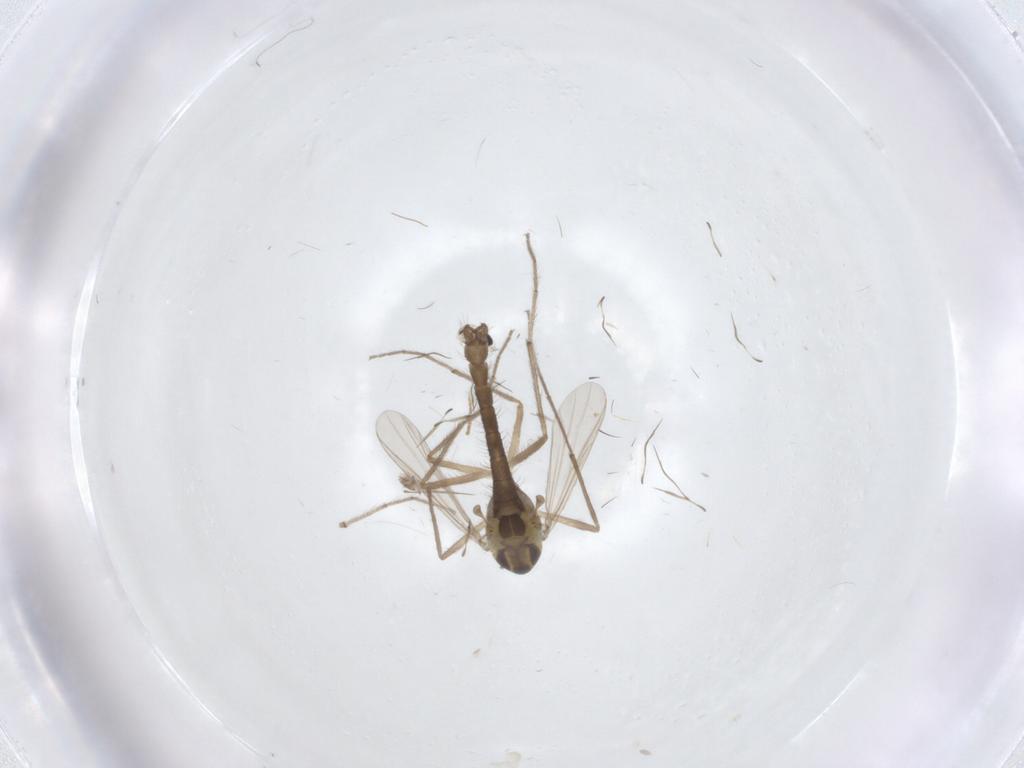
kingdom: Animalia
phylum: Arthropoda
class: Insecta
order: Diptera
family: Chironomidae
